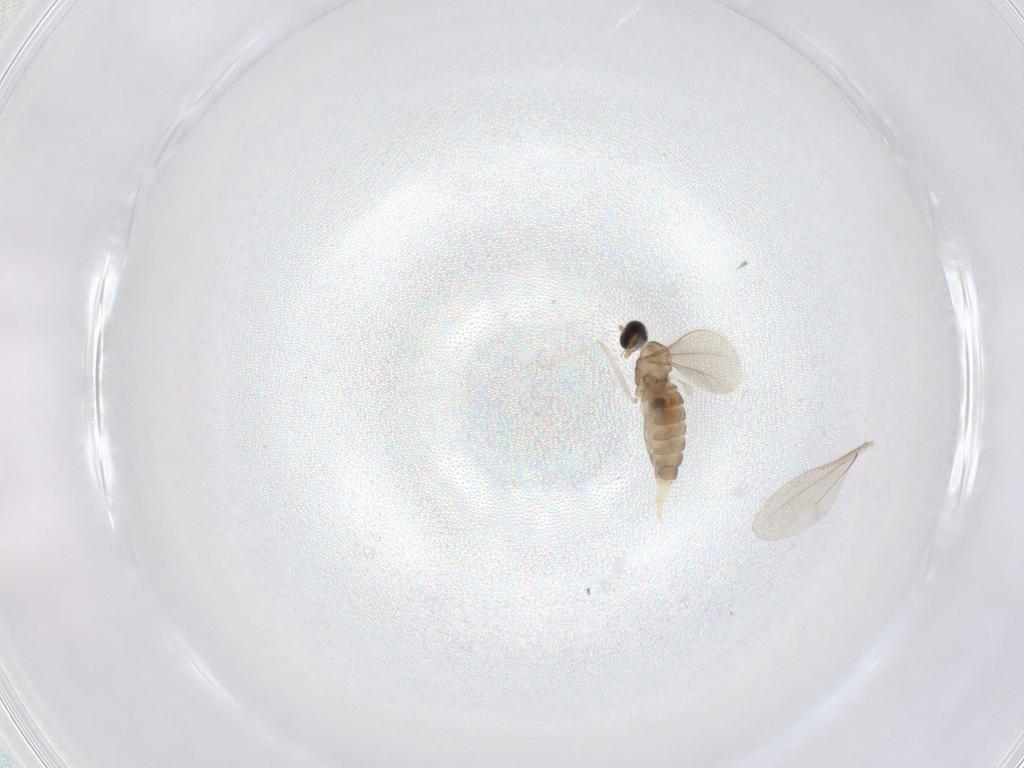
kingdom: Animalia
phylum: Arthropoda
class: Insecta
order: Diptera
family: Cecidomyiidae
